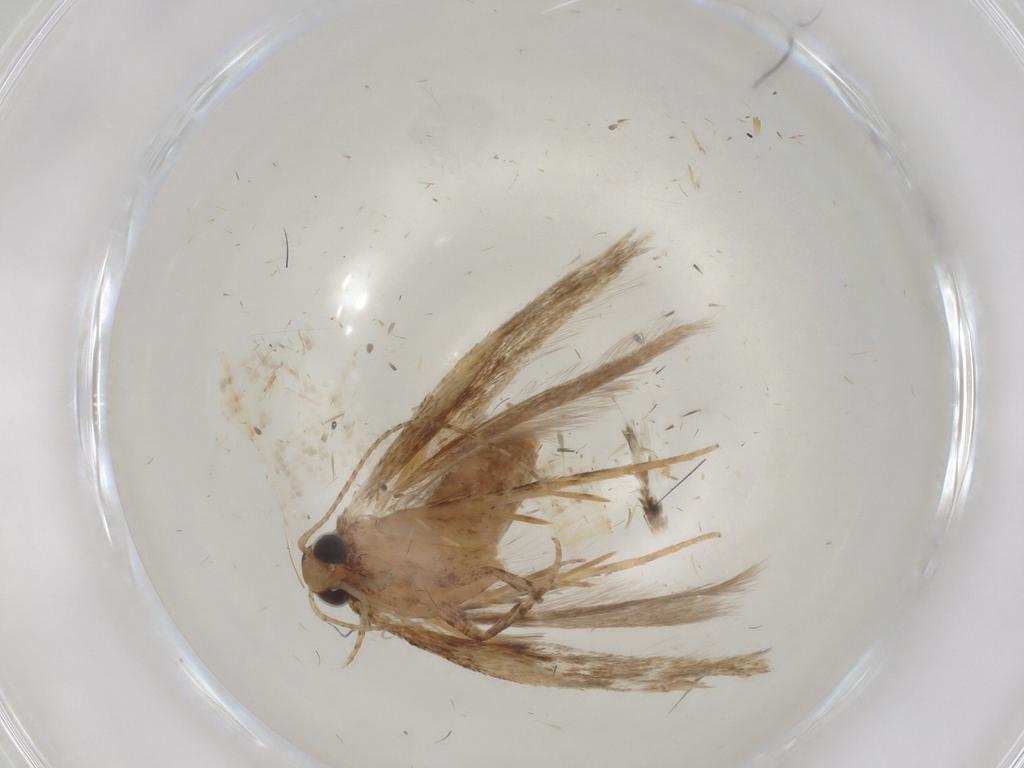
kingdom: Animalia
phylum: Arthropoda
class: Insecta
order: Lepidoptera
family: Gelechiidae
